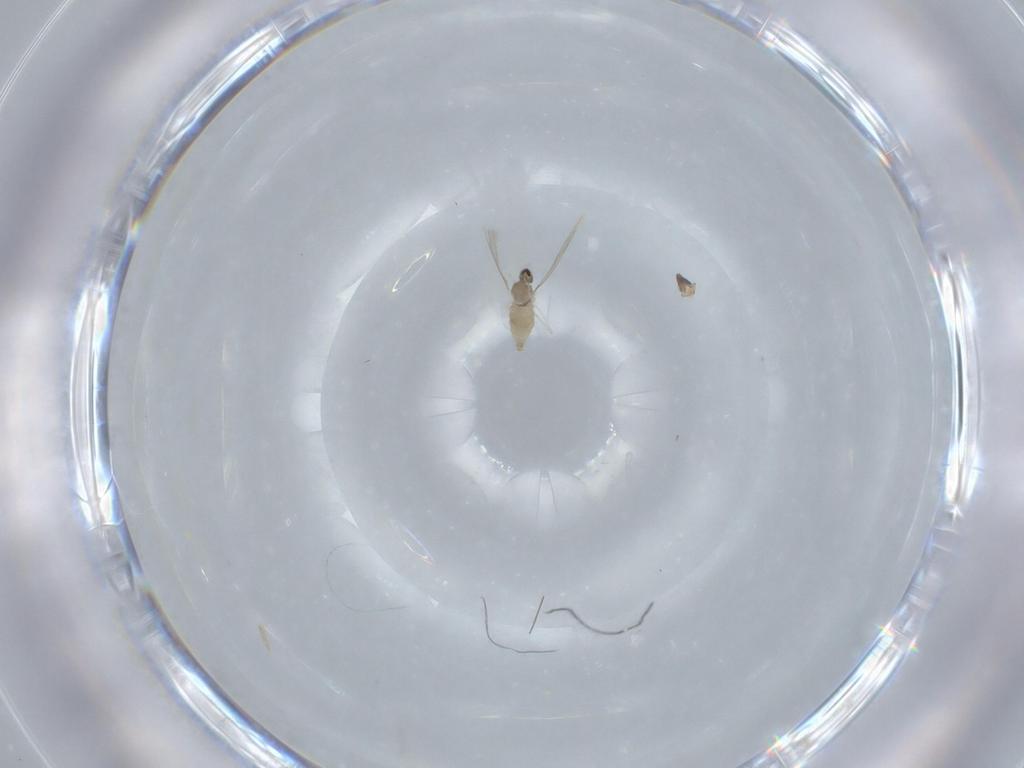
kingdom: Animalia
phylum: Arthropoda
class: Insecta
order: Diptera
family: Cecidomyiidae
